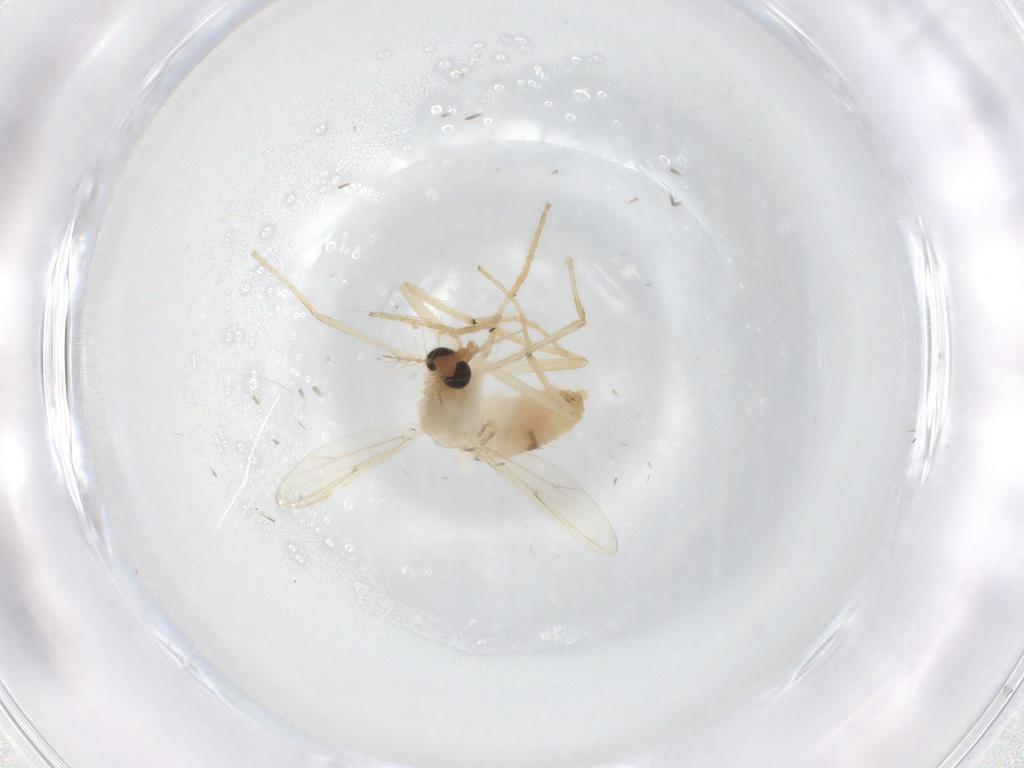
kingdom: Animalia
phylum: Arthropoda
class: Insecta
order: Diptera
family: Chironomidae
